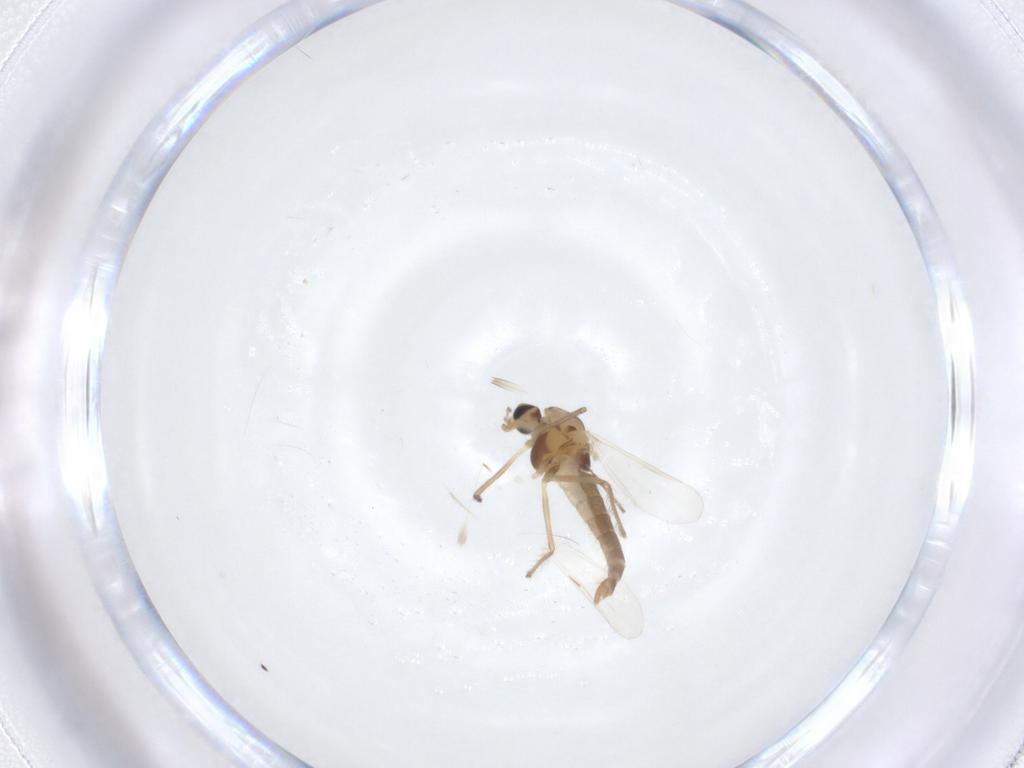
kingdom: Animalia
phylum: Arthropoda
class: Insecta
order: Diptera
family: Chironomidae
